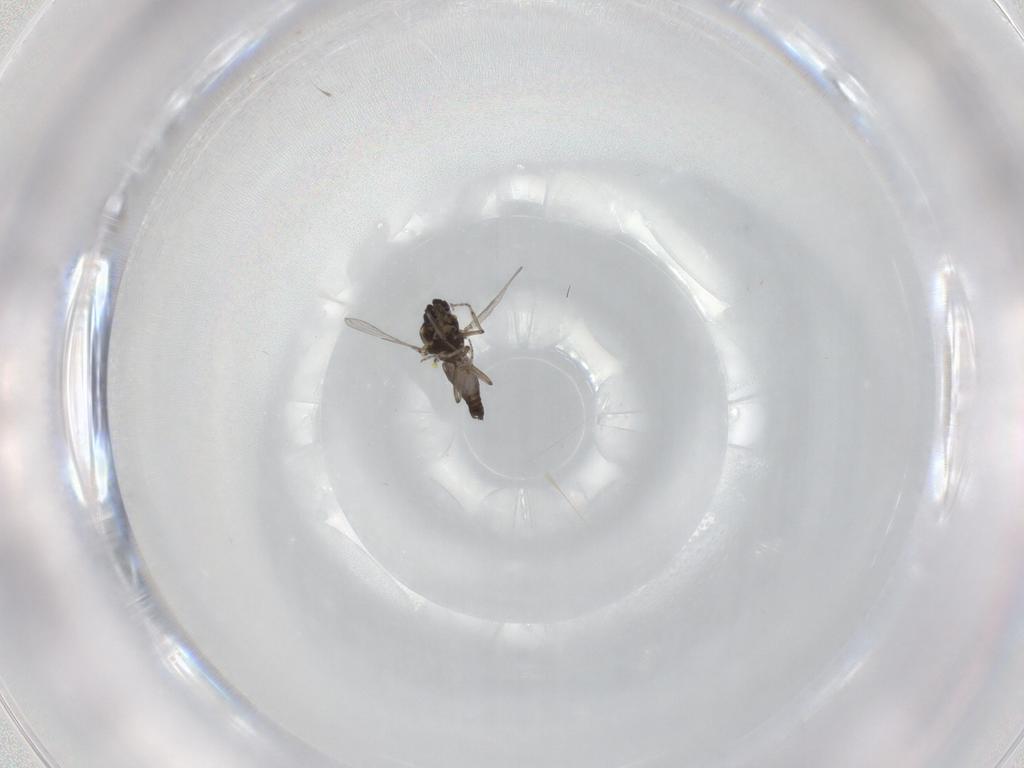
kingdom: Animalia
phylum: Arthropoda
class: Insecta
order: Diptera
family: Ceratopogonidae
